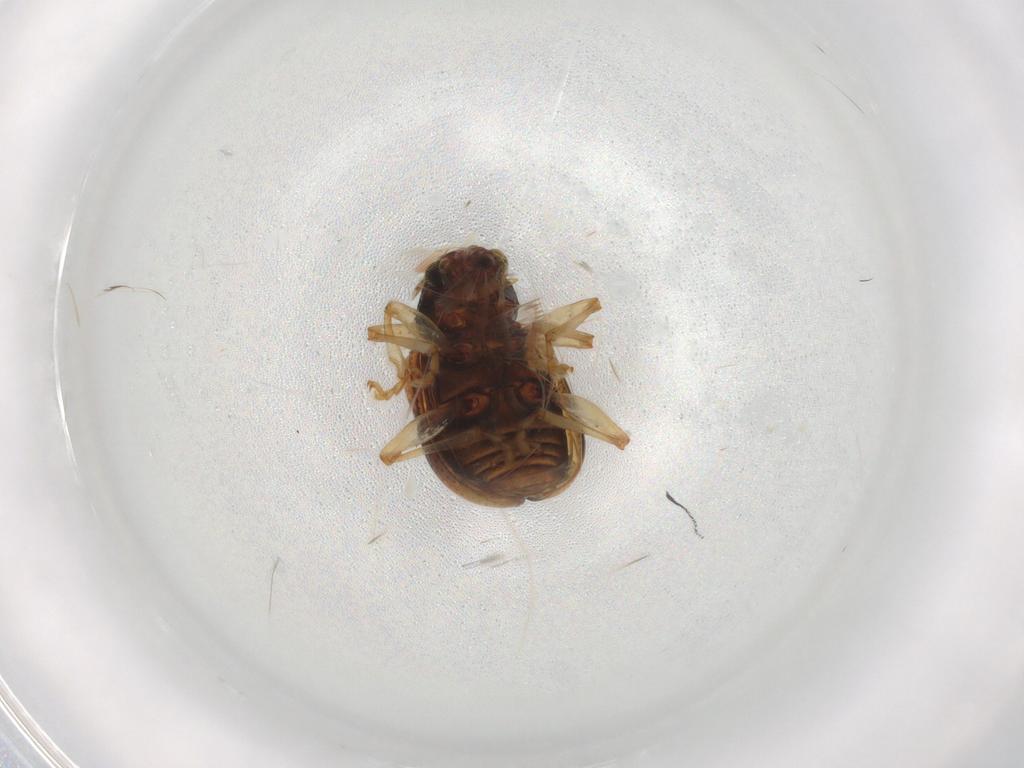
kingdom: Animalia
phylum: Arthropoda
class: Insecta
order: Coleoptera
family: Chrysomelidae
